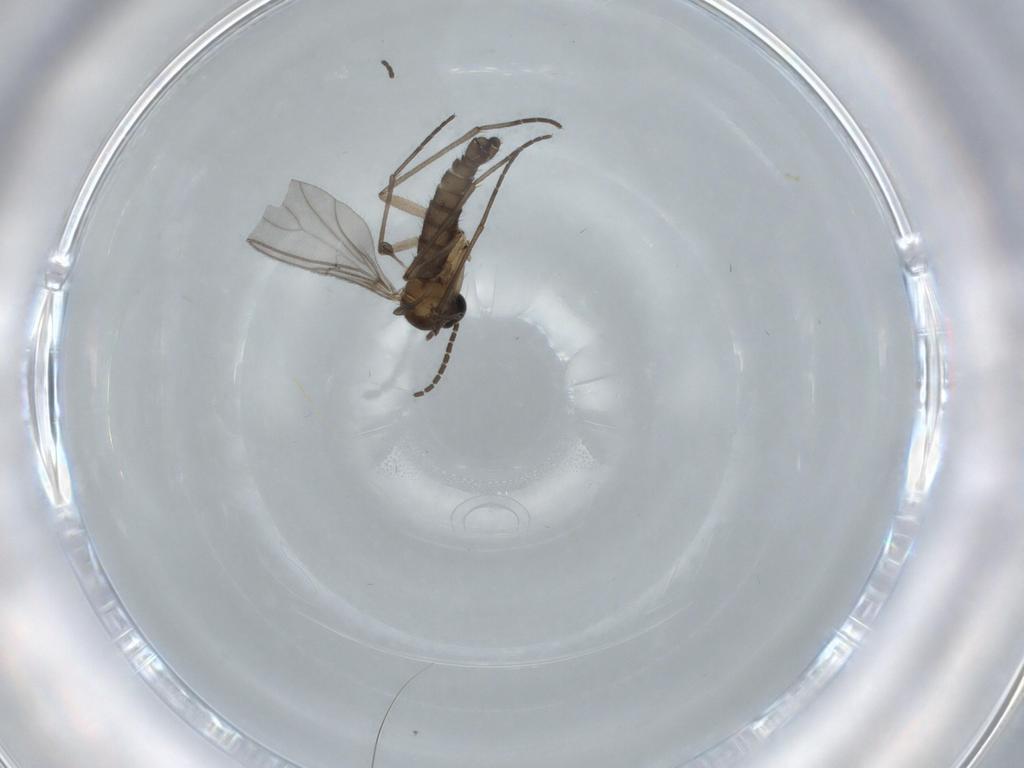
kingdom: Animalia
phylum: Arthropoda
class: Insecta
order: Diptera
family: Sciaridae
